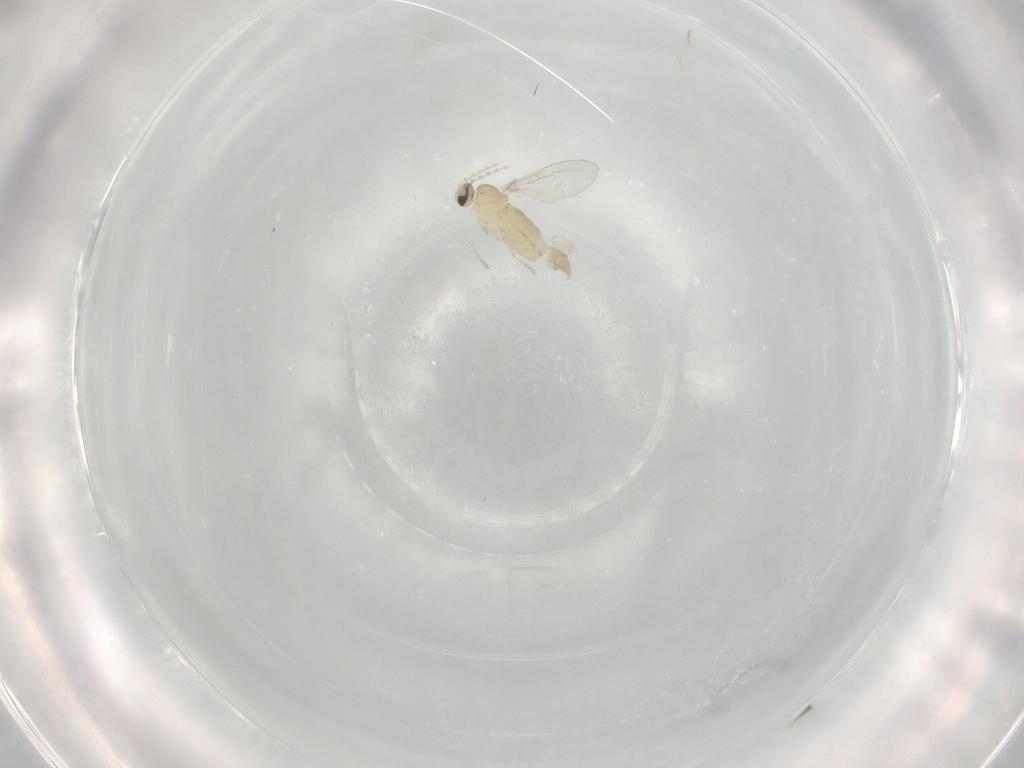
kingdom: Animalia
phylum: Arthropoda
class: Insecta
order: Diptera
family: Cecidomyiidae
